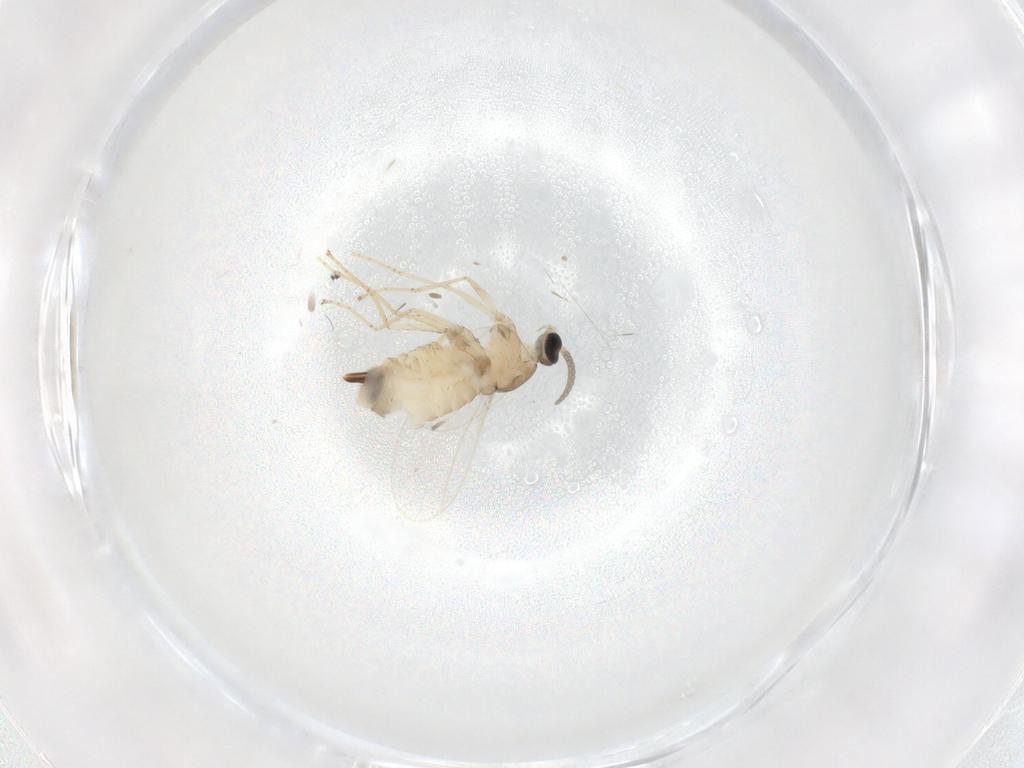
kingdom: Animalia
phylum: Arthropoda
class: Insecta
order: Diptera
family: Cecidomyiidae
